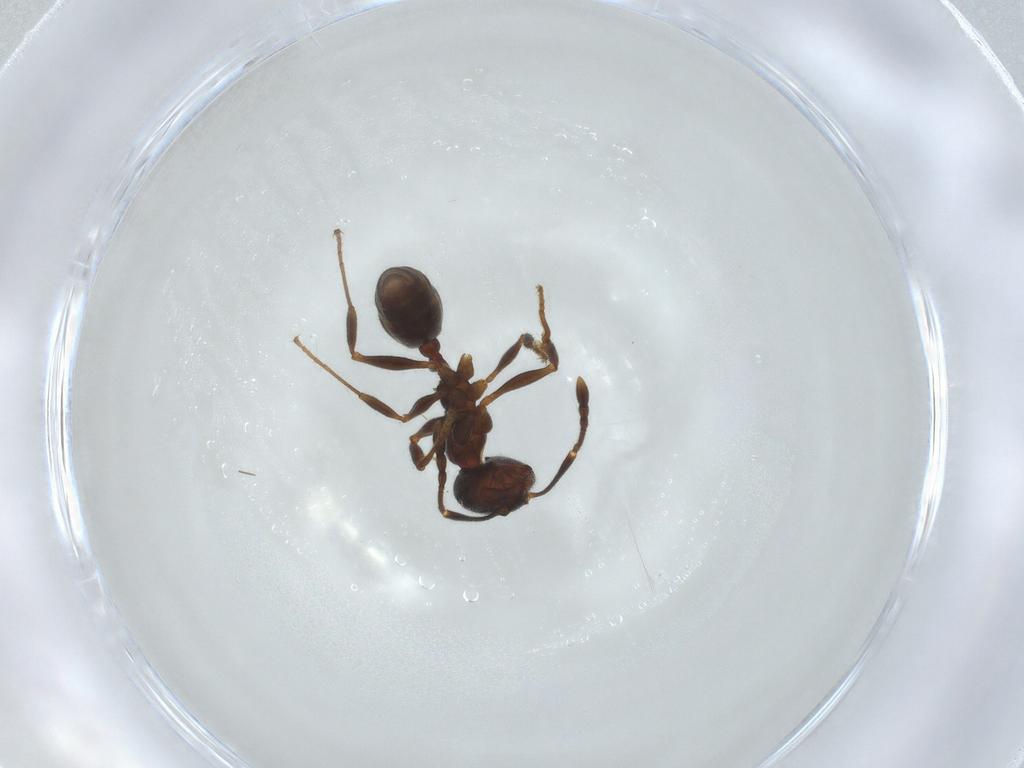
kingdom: Animalia
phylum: Arthropoda
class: Insecta
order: Hymenoptera
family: Formicidae
